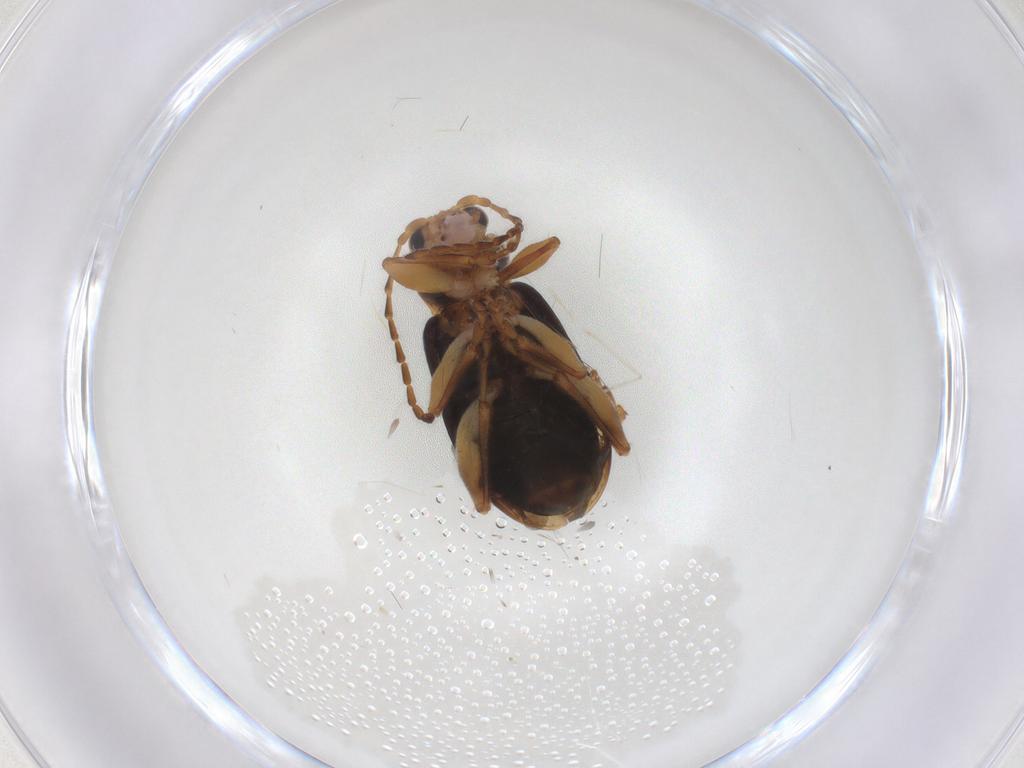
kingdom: Animalia
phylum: Arthropoda
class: Insecta
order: Coleoptera
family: Chrysomelidae
